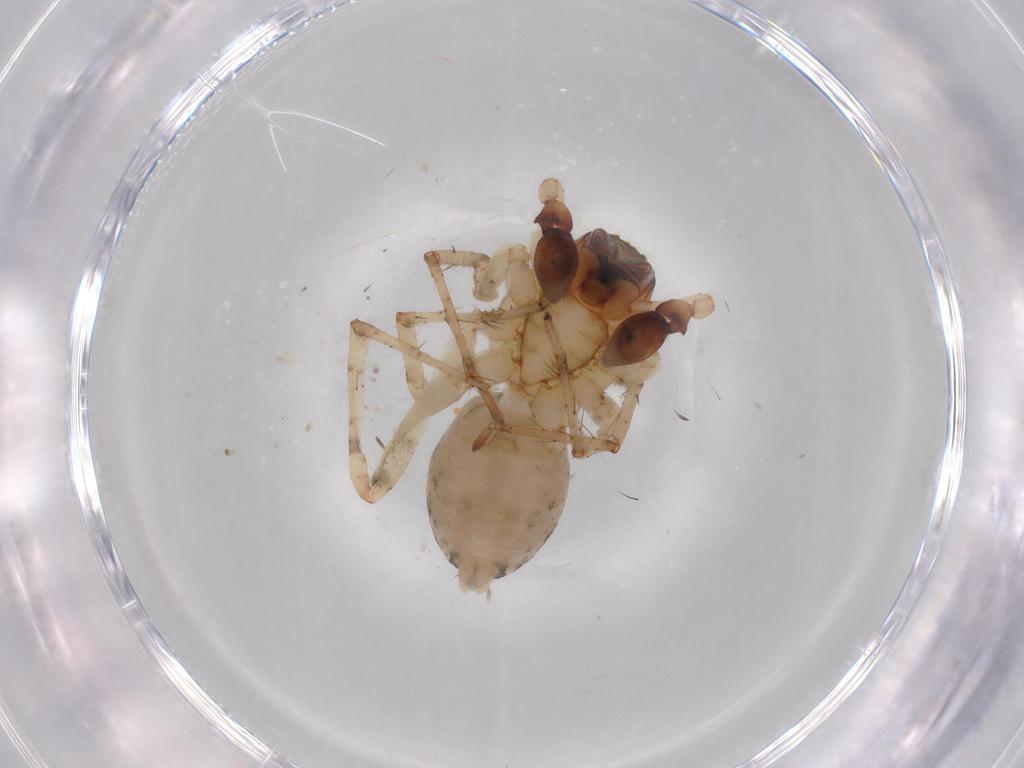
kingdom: Animalia
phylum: Arthropoda
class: Arachnida
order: Araneae
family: Anyphaenidae
